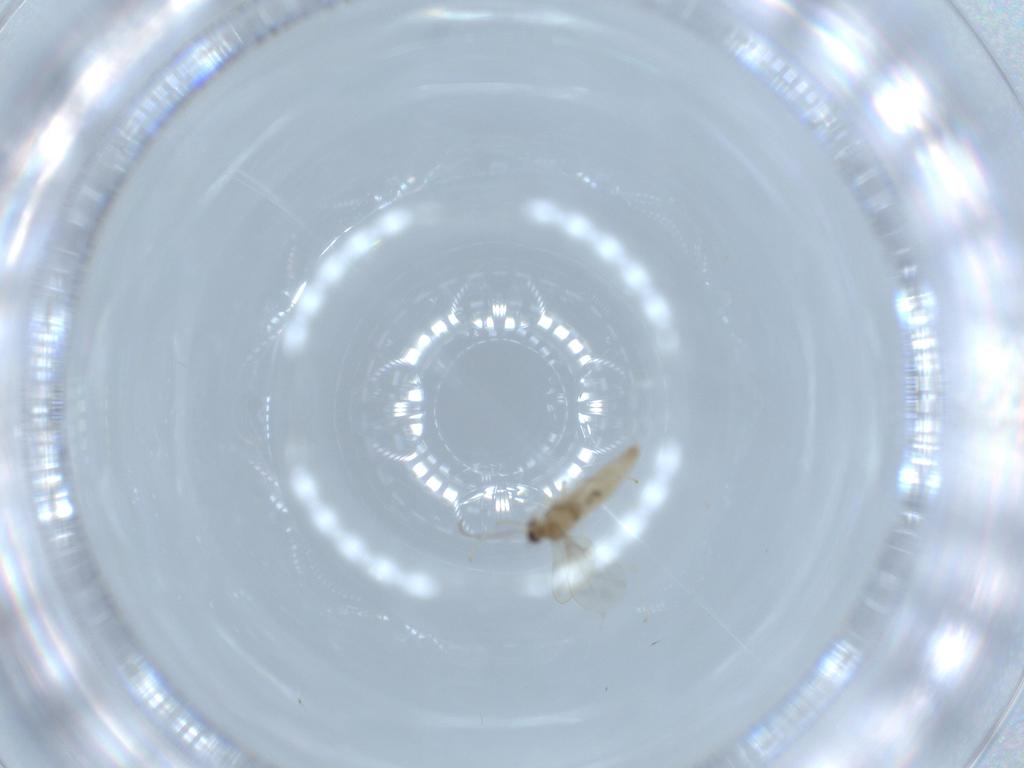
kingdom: Animalia
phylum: Arthropoda
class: Insecta
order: Diptera
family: Cecidomyiidae
